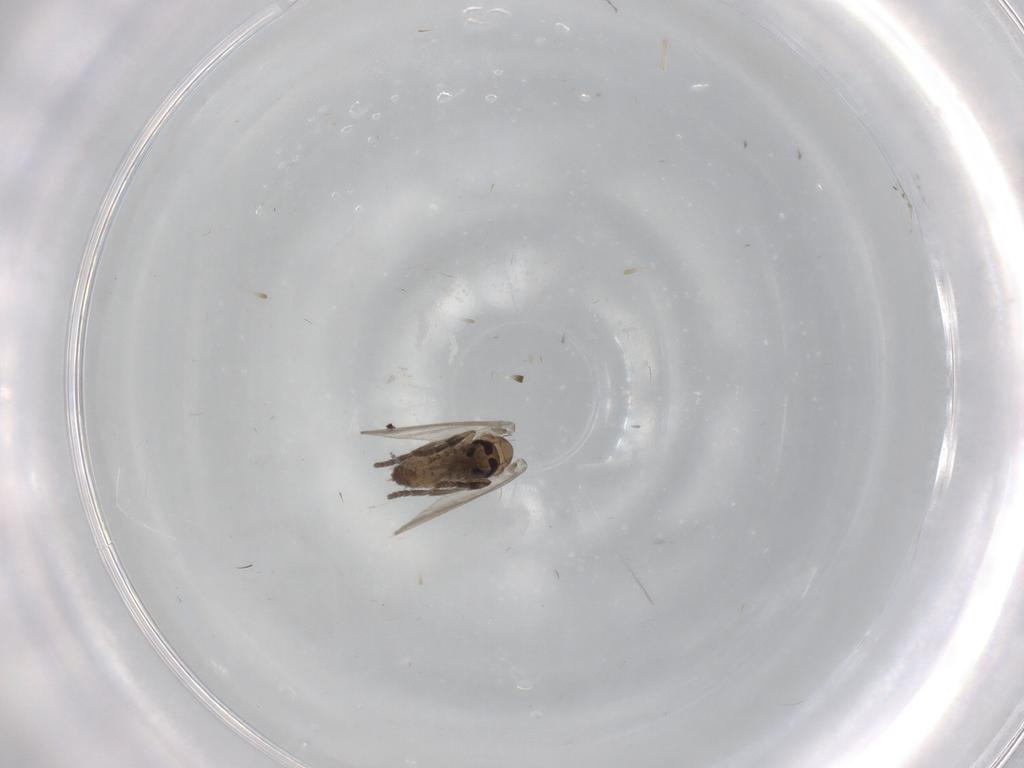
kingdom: Animalia
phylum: Arthropoda
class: Insecta
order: Diptera
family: Psychodidae
